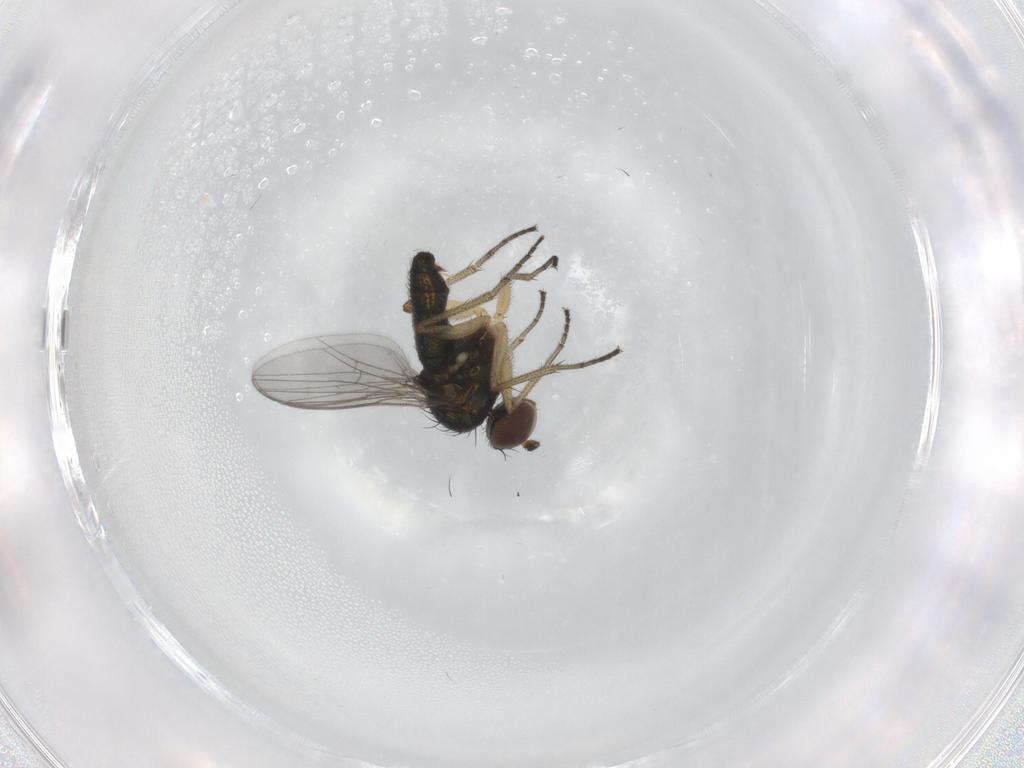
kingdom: Animalia
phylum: Arthropoda
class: Insecta
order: Diptera
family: Dolichopodidae
